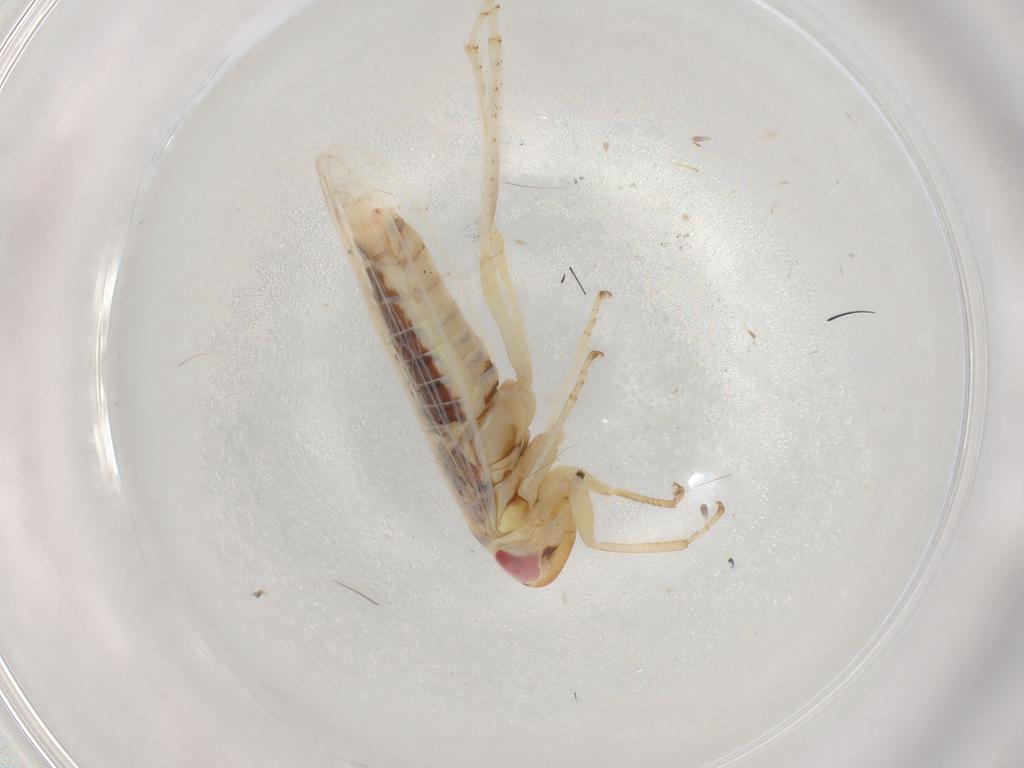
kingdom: Animalia
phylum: Arthropoda
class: Insecta
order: Hemiptera
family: Cicadellidae
